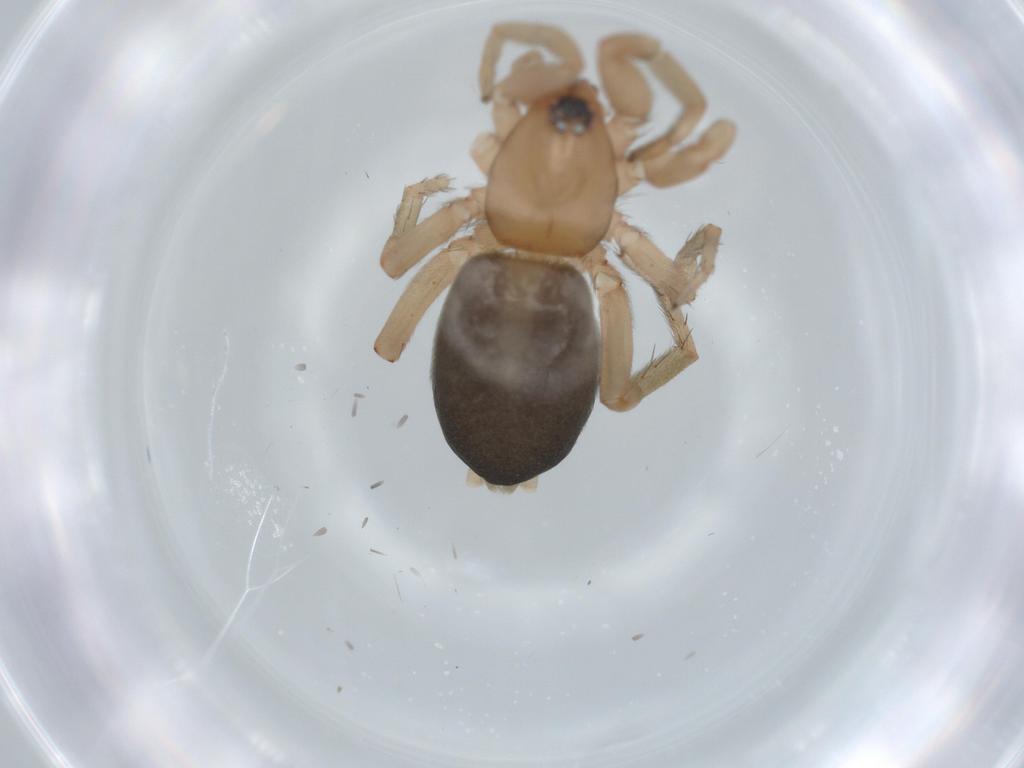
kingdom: Animalia
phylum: Arthropoda
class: Arachnida
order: Araneae
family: Gnaphosidae
